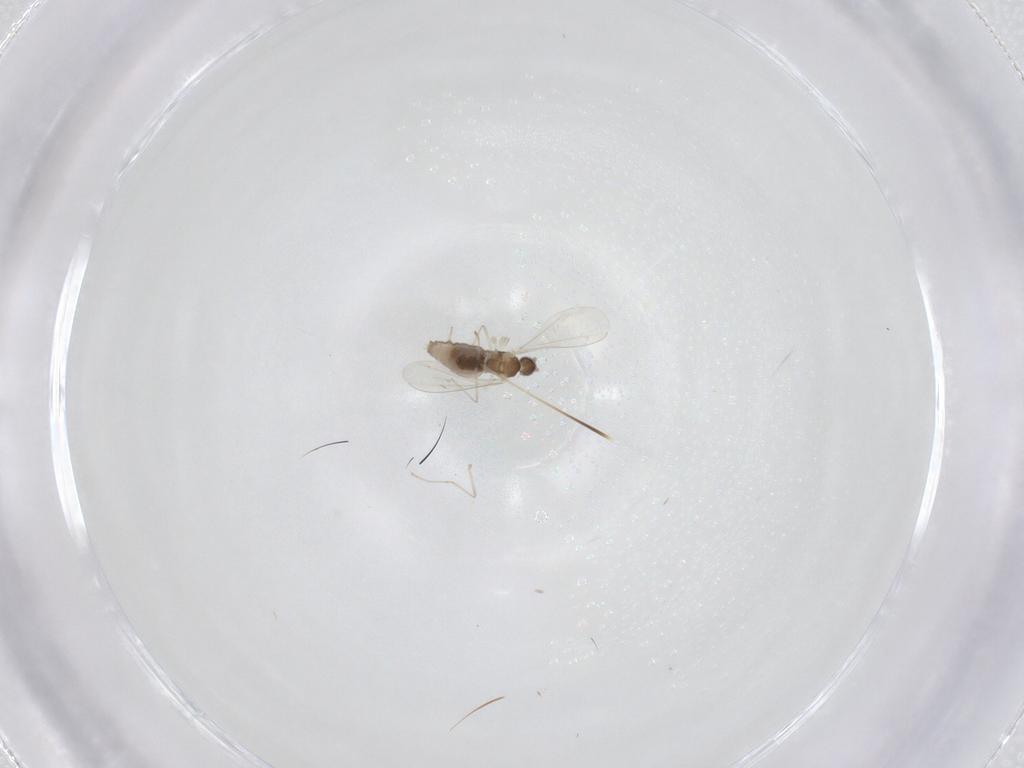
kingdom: Animalia
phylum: Arthropoda
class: Insecta
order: Diptera
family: Cecidomyiidae
